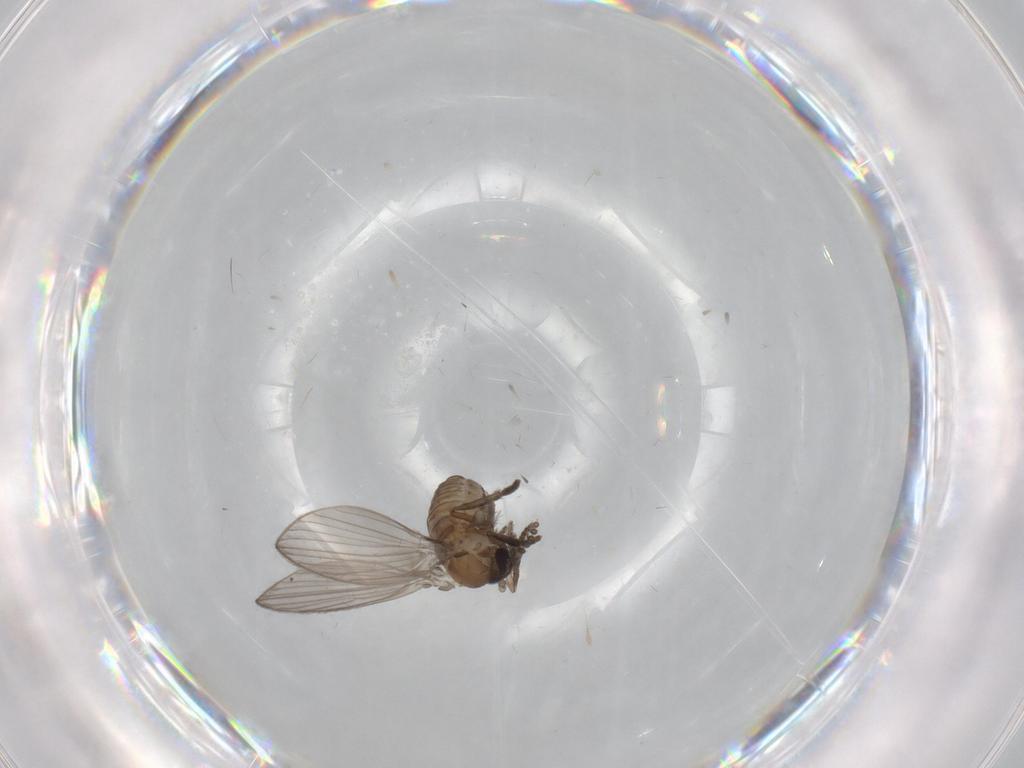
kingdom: Animalia
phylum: Arthropoda
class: Insecta
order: Diptera
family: Psychodidae
